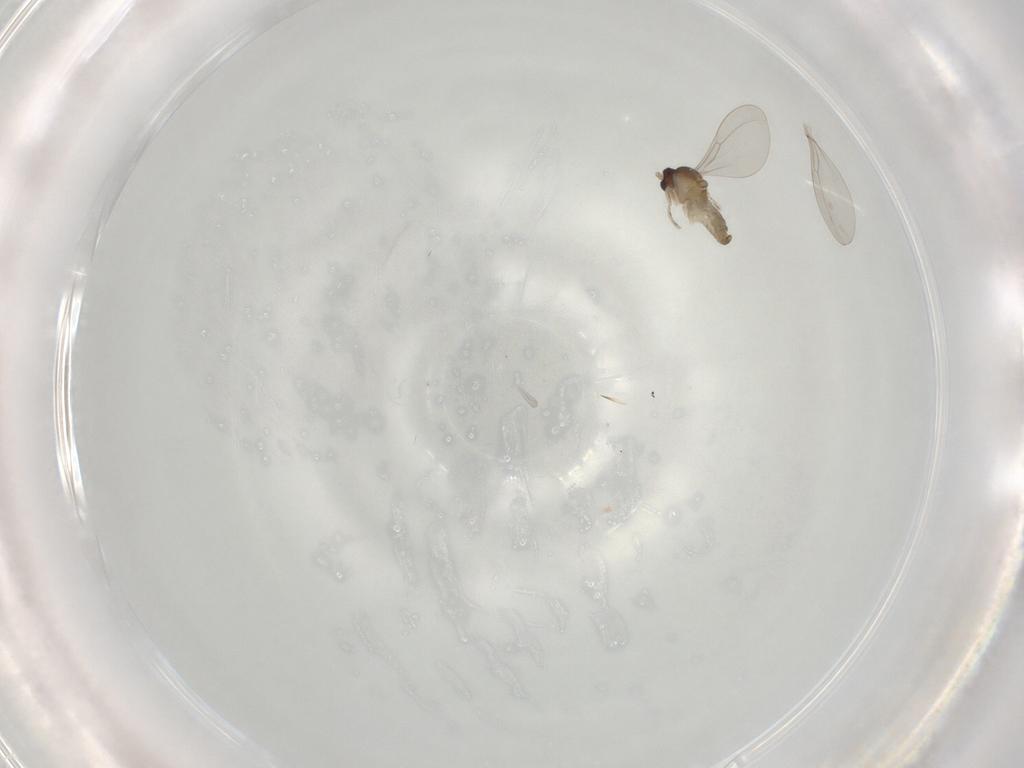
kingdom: Animalia
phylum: Arthropoda
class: Insecta
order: Diptera
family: Cecidomyiidae
